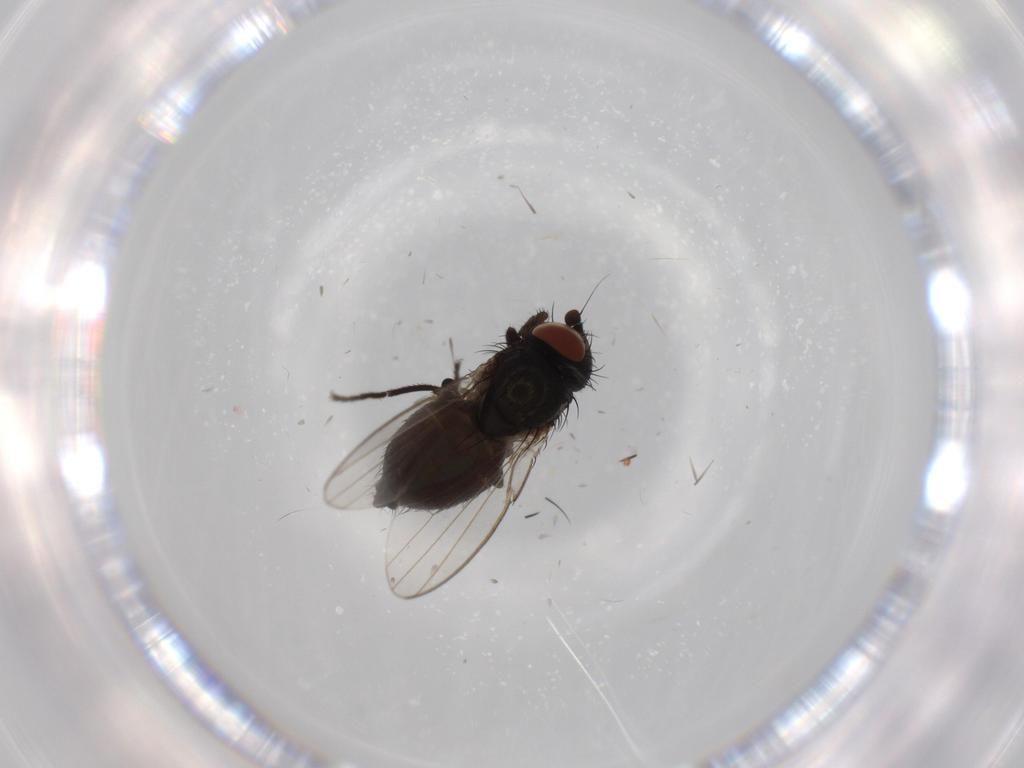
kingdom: Animalia
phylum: Arthropoda
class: Insecta
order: Diptera
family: Milichiidae
